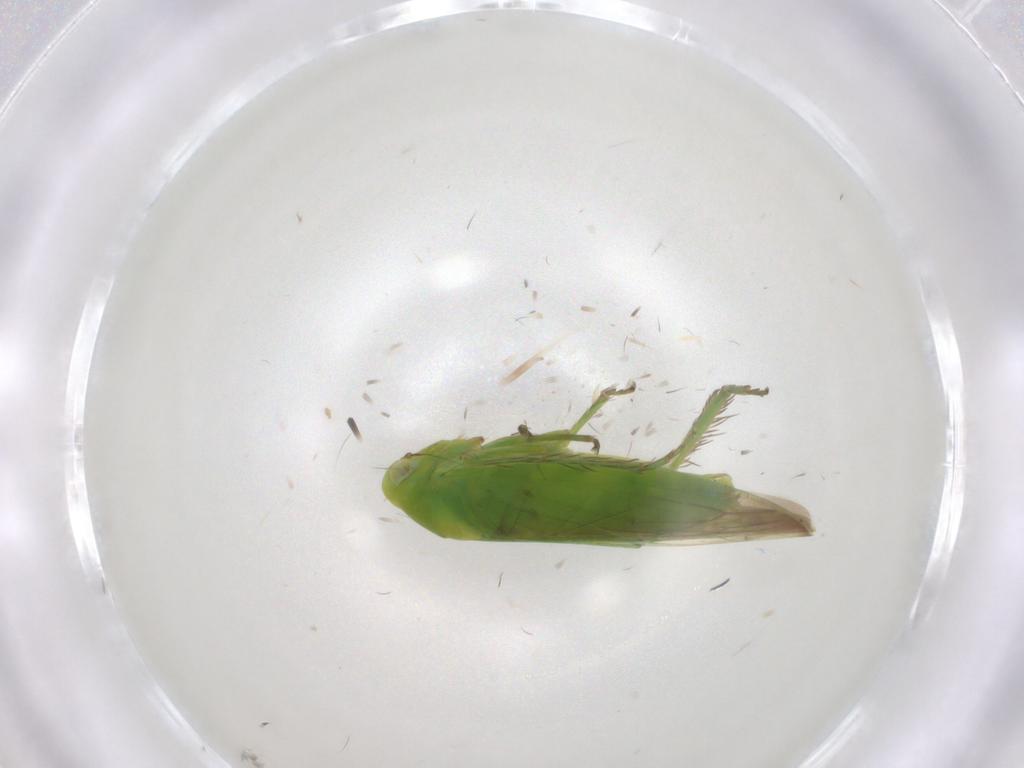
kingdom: Animalia
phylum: Arthropoda
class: Insecta
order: Hemiptera
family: Cicadellidae
